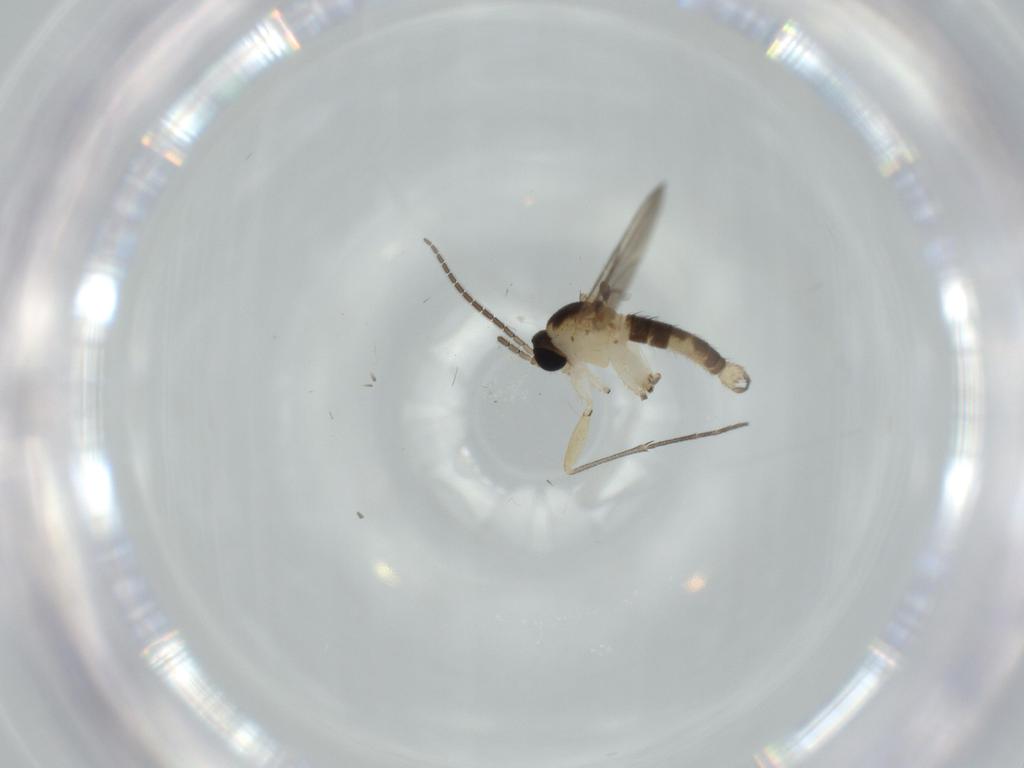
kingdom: Animalia
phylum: Arthropoda
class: Insecta
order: Diptera
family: Sciaridae
